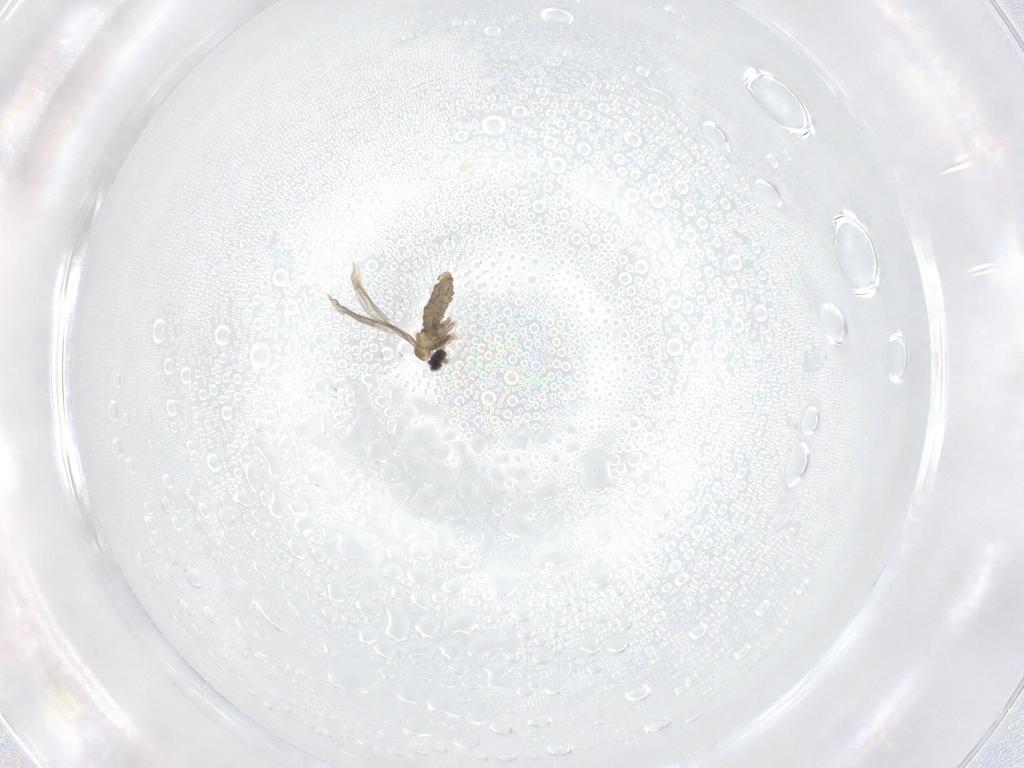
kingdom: Animalia
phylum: Arthropoda
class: Insecta
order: Diptera
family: Cecidomyiidae
